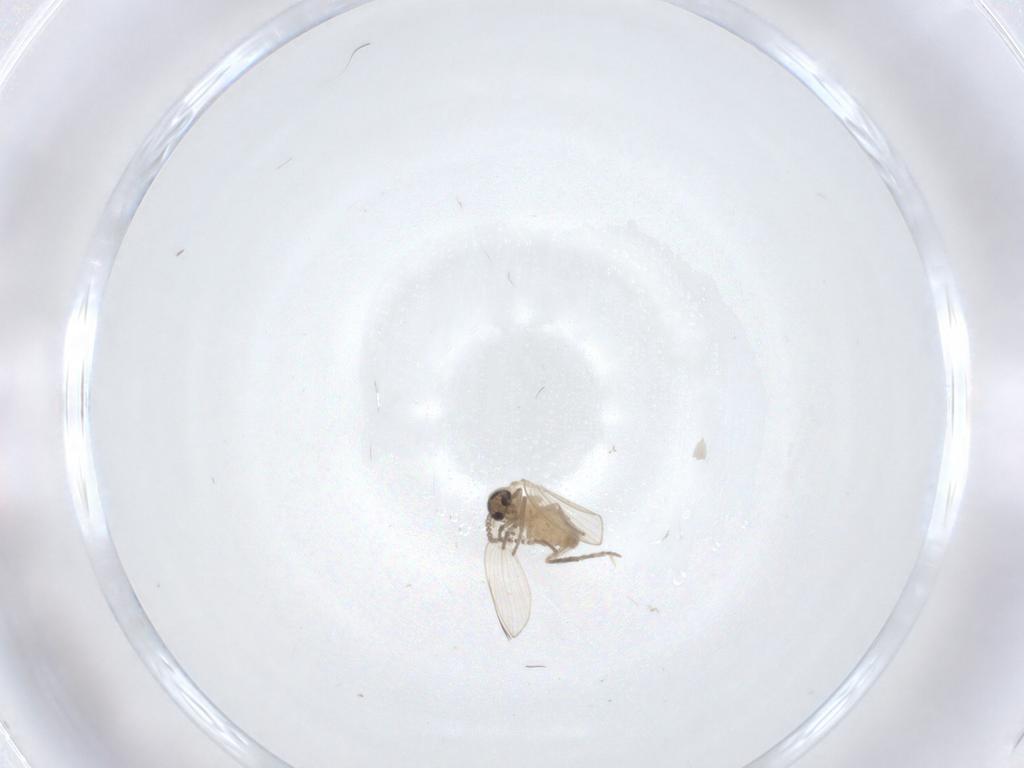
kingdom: Animalia
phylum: Arthropoda
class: Insecta
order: Diptera
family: Psychodidae
